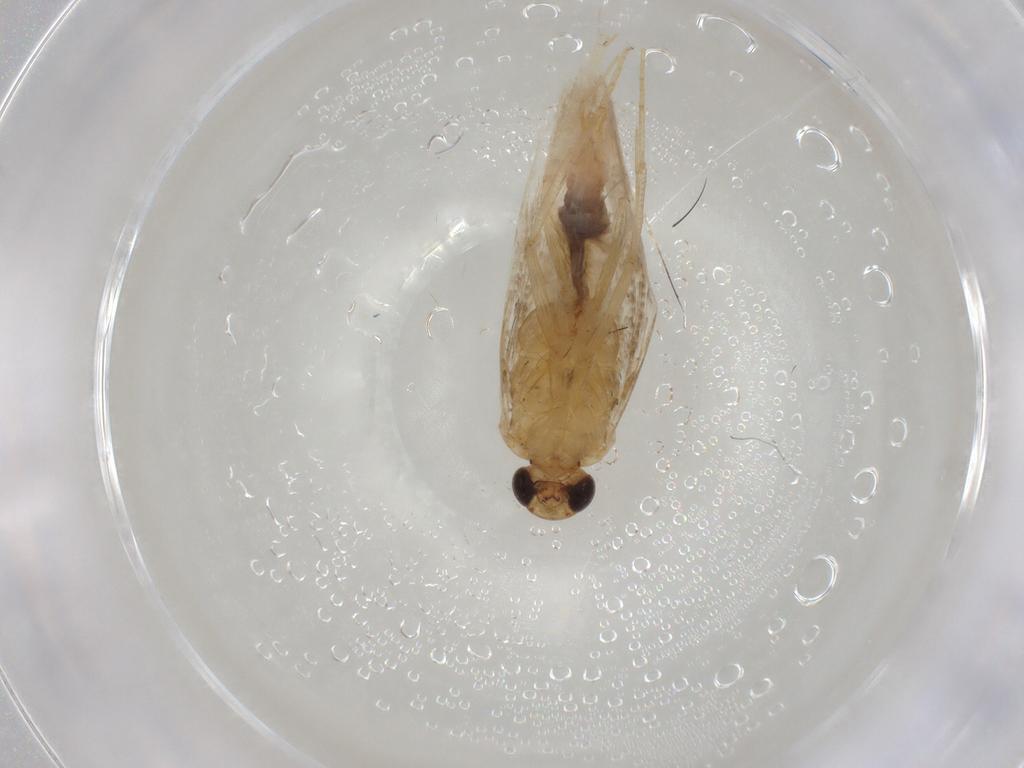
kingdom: Animalia
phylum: Arthropoda
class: Insecta
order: Lepidoptera
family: Gelechiidae
